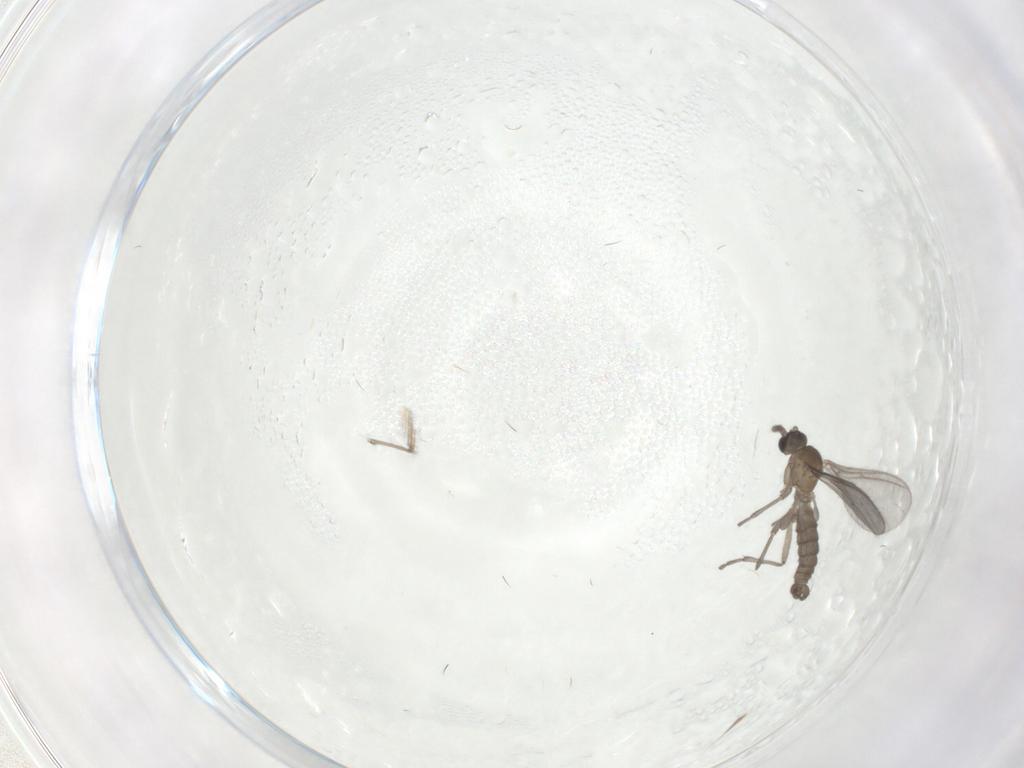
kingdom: Animalia
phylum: Arthropoda
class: Insecta
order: Diptera
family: Sciaridae
